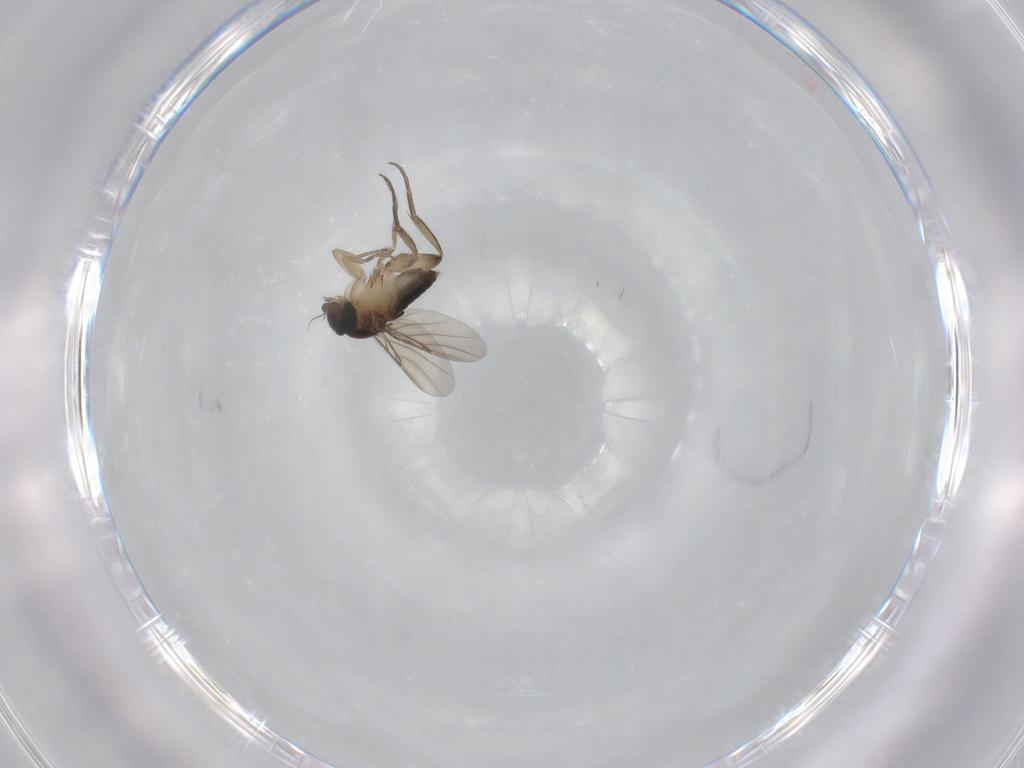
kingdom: Animalia
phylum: Arthropoda
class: Insecta
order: Diptera
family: Phoridae
